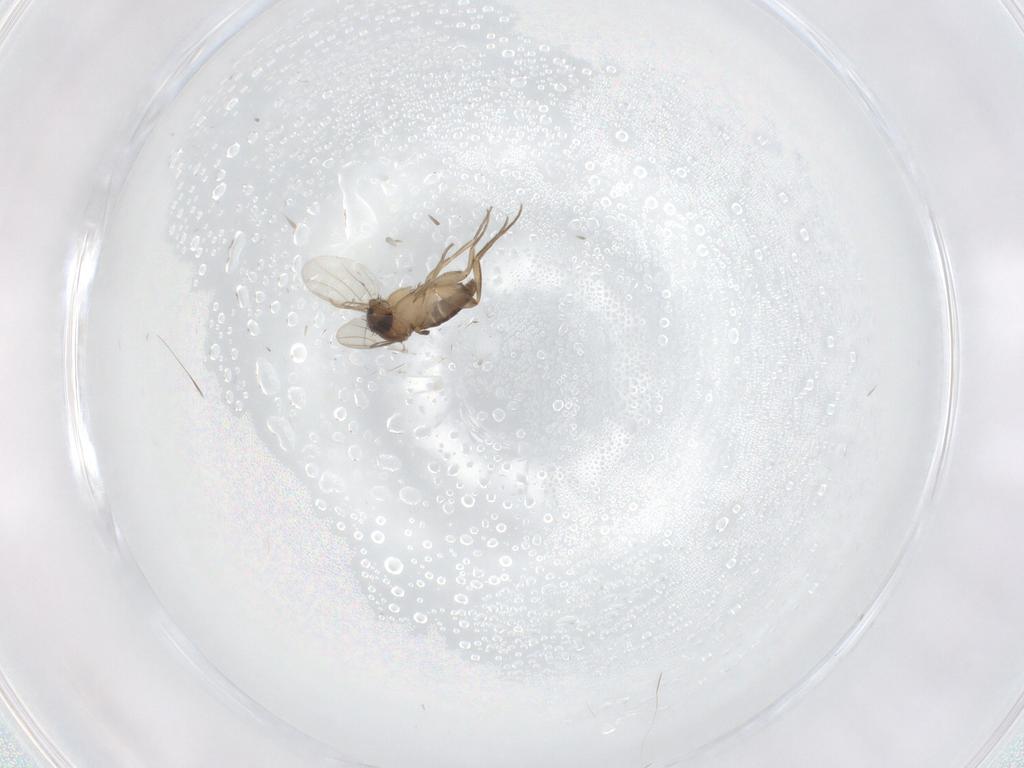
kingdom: Animalia
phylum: Arthropoda
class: Insecta
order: Diptera
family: Phoridae
